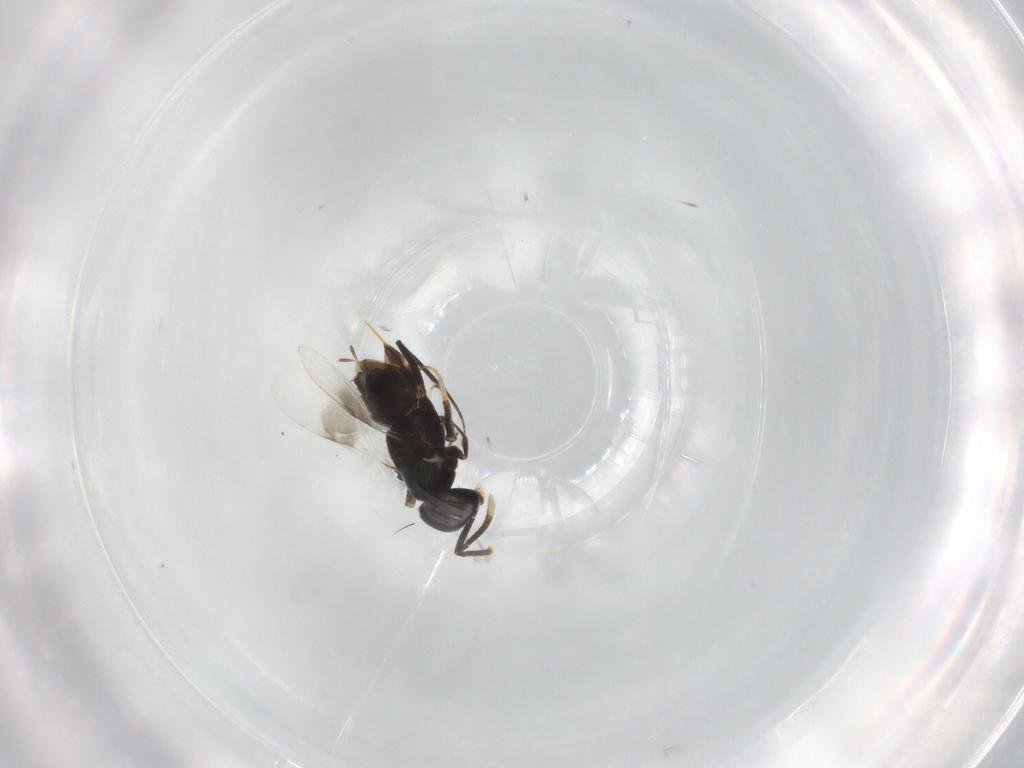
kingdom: Animalia
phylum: Arthropoda
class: Insecta
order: Hymenoptera
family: Encyrtidae
